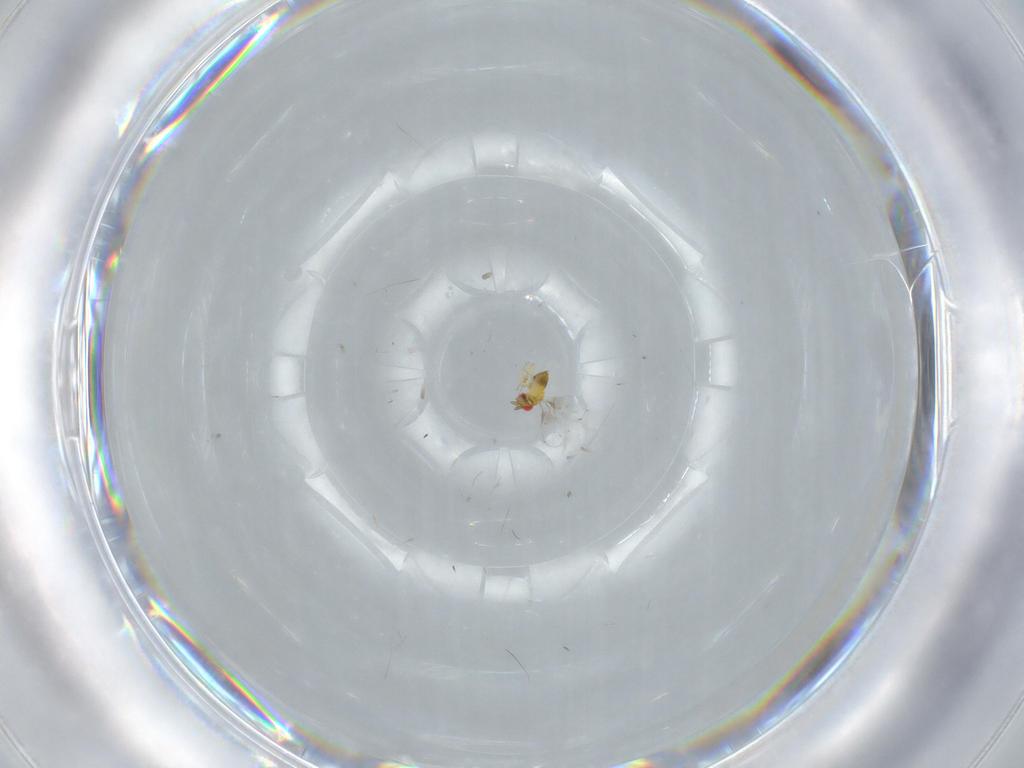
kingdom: Animalia
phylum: Arthropoda
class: Insecta
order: Hymenoptera
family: Trichogrammatidae
